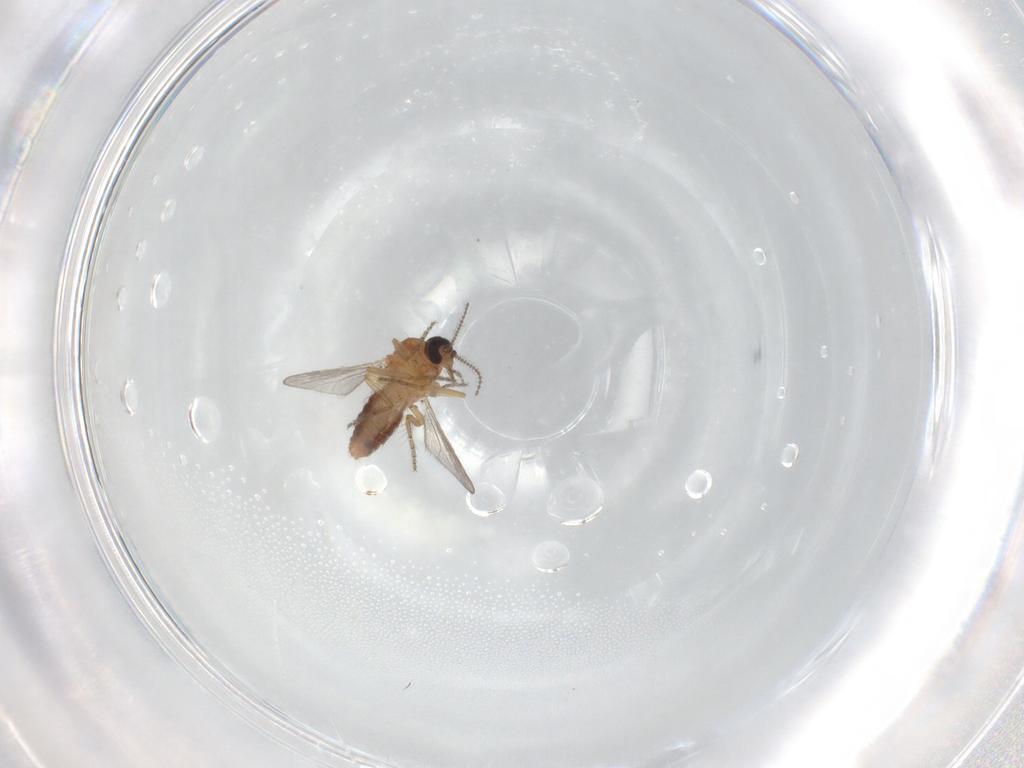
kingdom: Animalia
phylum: Arthropoda
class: Insecta
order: Diptera
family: Ceratopogonidae
